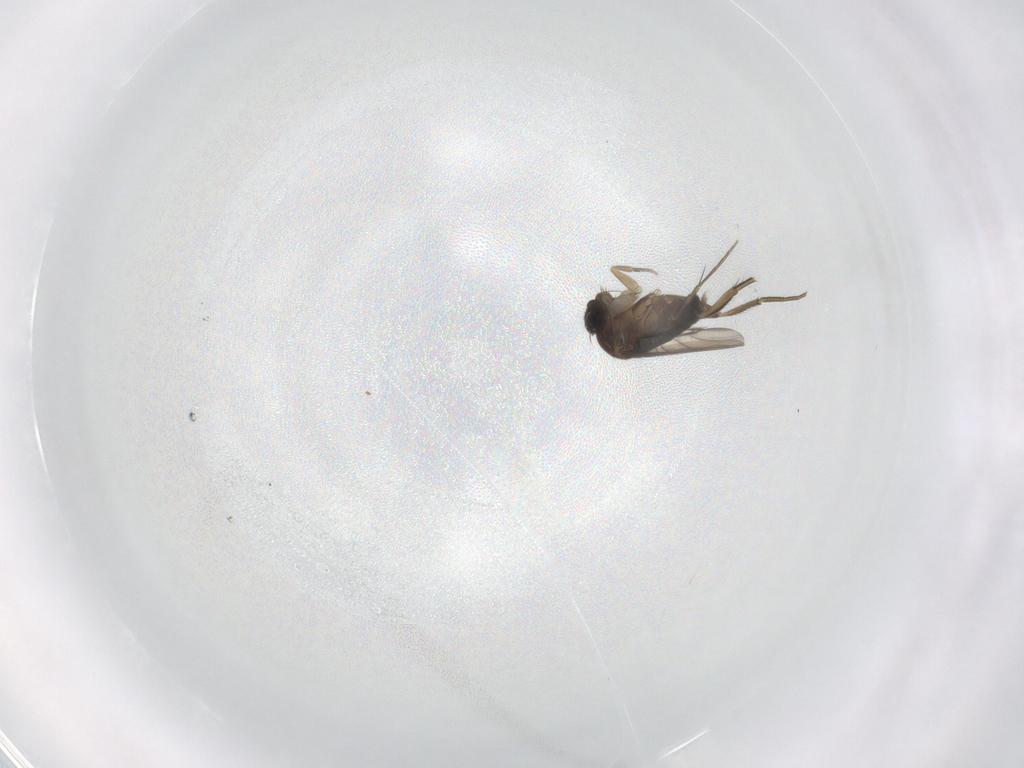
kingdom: Animalia
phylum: Arthropoda
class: Insecta
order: Diptera
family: Phoridae
